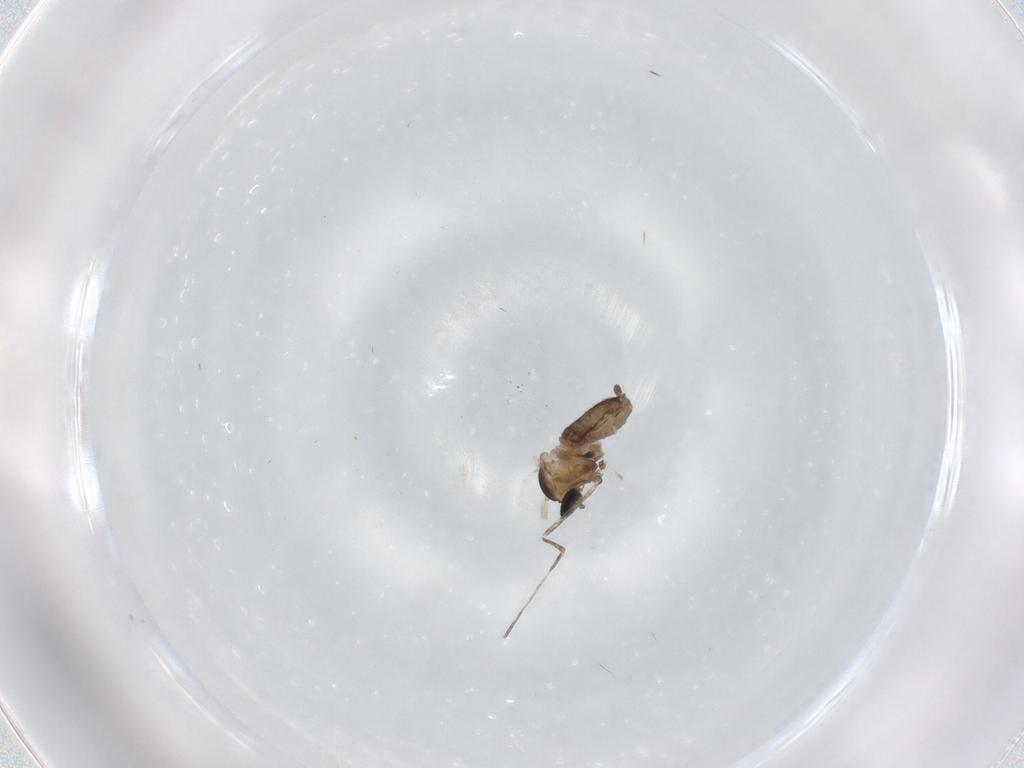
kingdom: Animalia
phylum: Arthropoda
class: Insecta
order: Diptera
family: Cecidomyiidae
